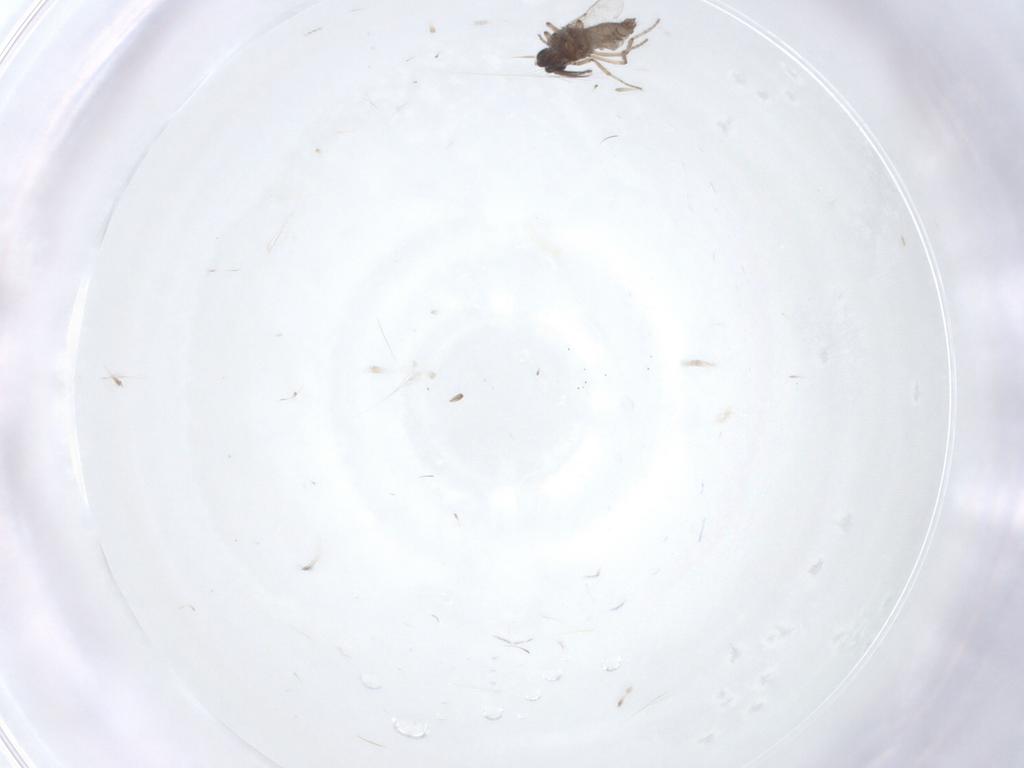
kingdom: Animalia
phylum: Arthropoda
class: Insecta
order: Diptera
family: Ceratopogonidae
